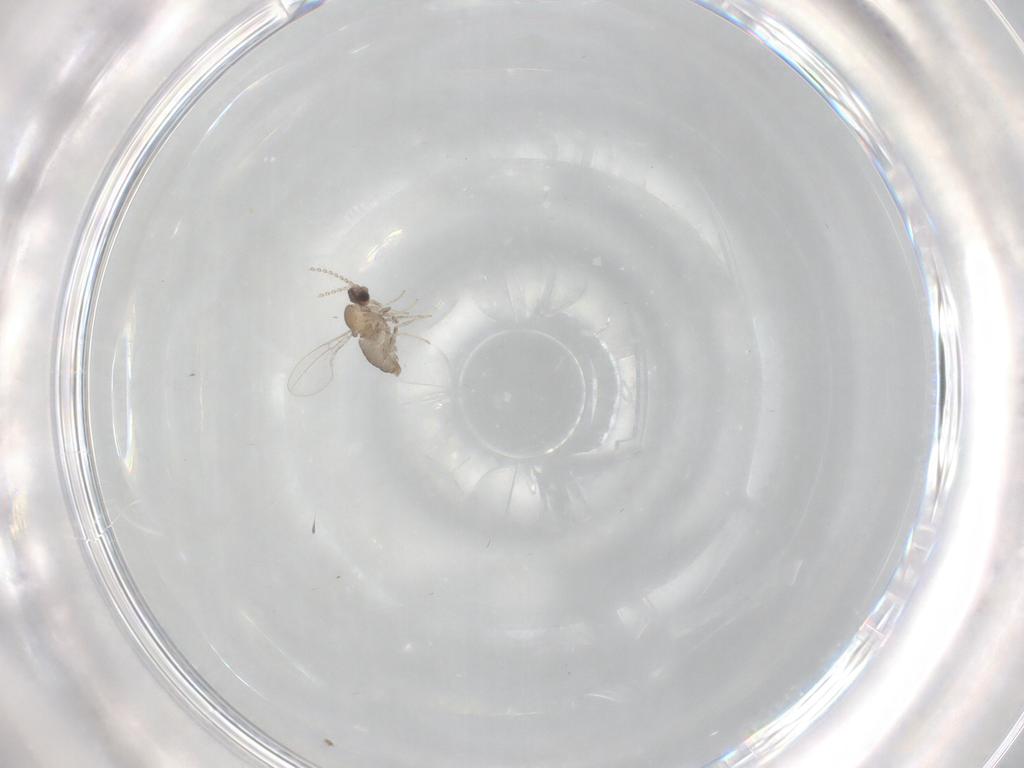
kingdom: Animalia
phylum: Arthropoda
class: Insecta
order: Diptera
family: Cecidomyiidae
